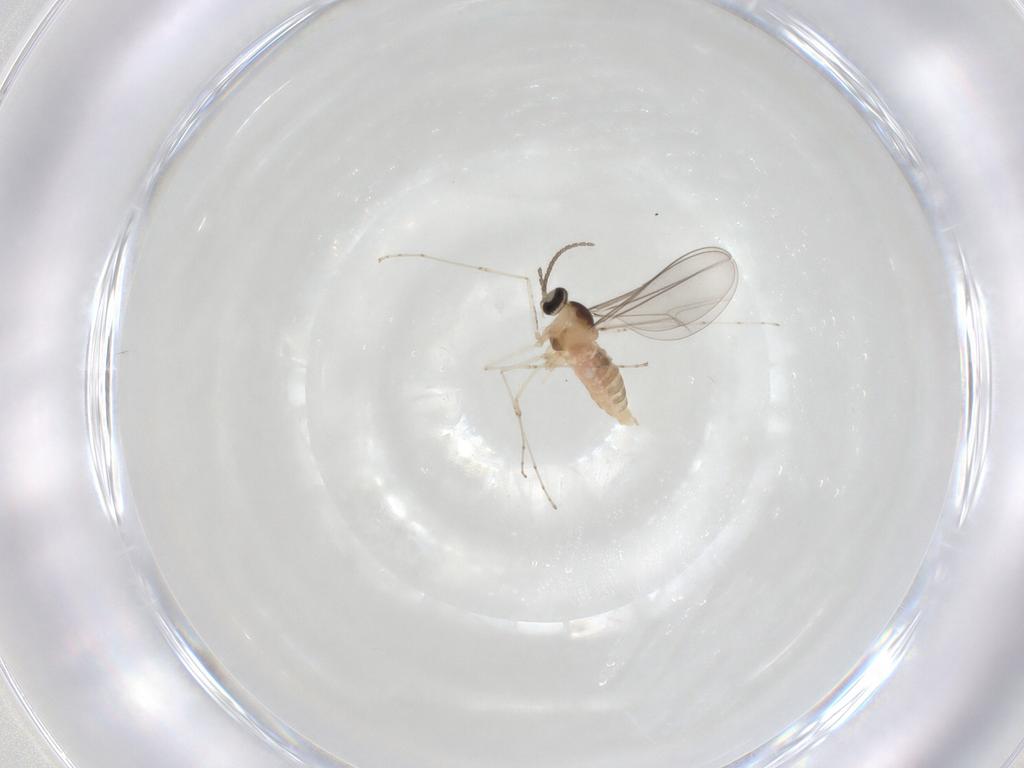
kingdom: Animalia
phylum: Arthropoda
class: Insecta
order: Diptera
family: Cecidomyiidae
